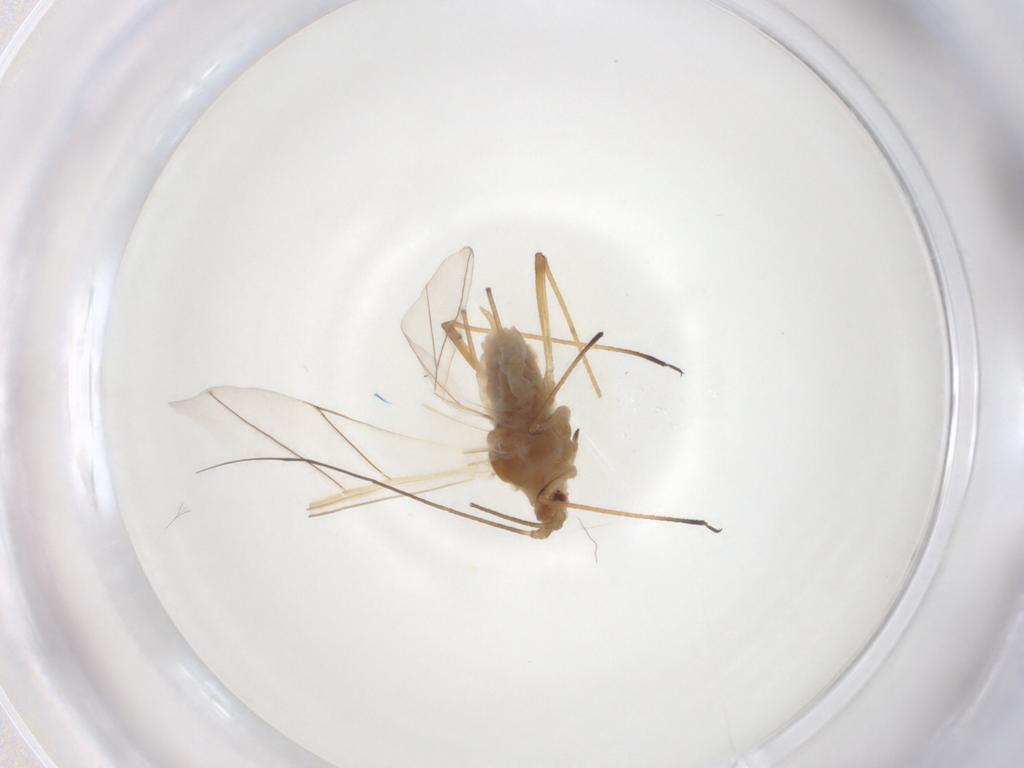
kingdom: Animalia
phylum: Arthropoda
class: Insecta
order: Hemiptera
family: Aphididae
